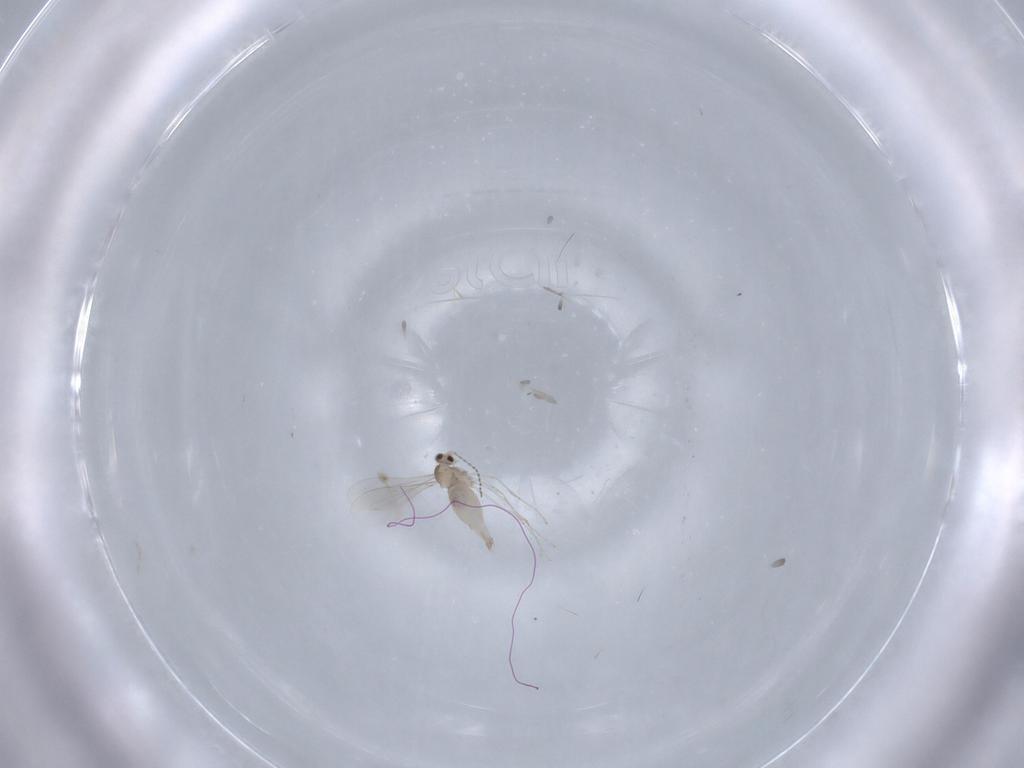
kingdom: Animalia
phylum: Arthropoda
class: Insecta
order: Diptera
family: Cecidomyiidae
